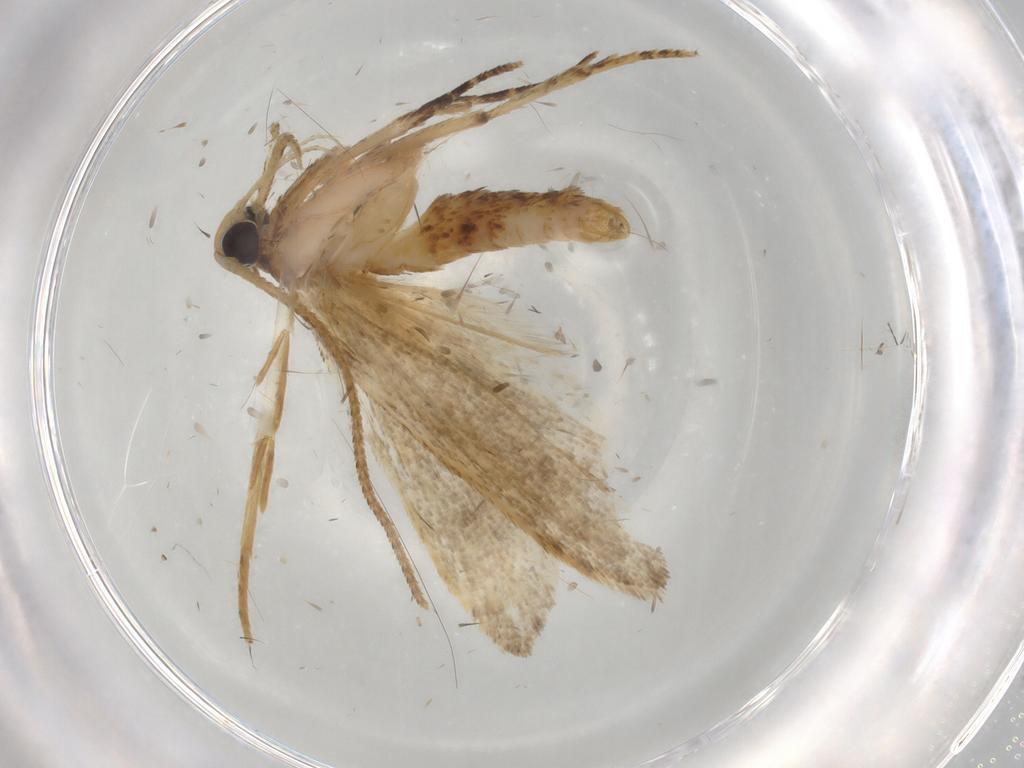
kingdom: Animalia
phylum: Arthropoda
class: Insecta
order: Lepidoptera
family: Autostichidae
